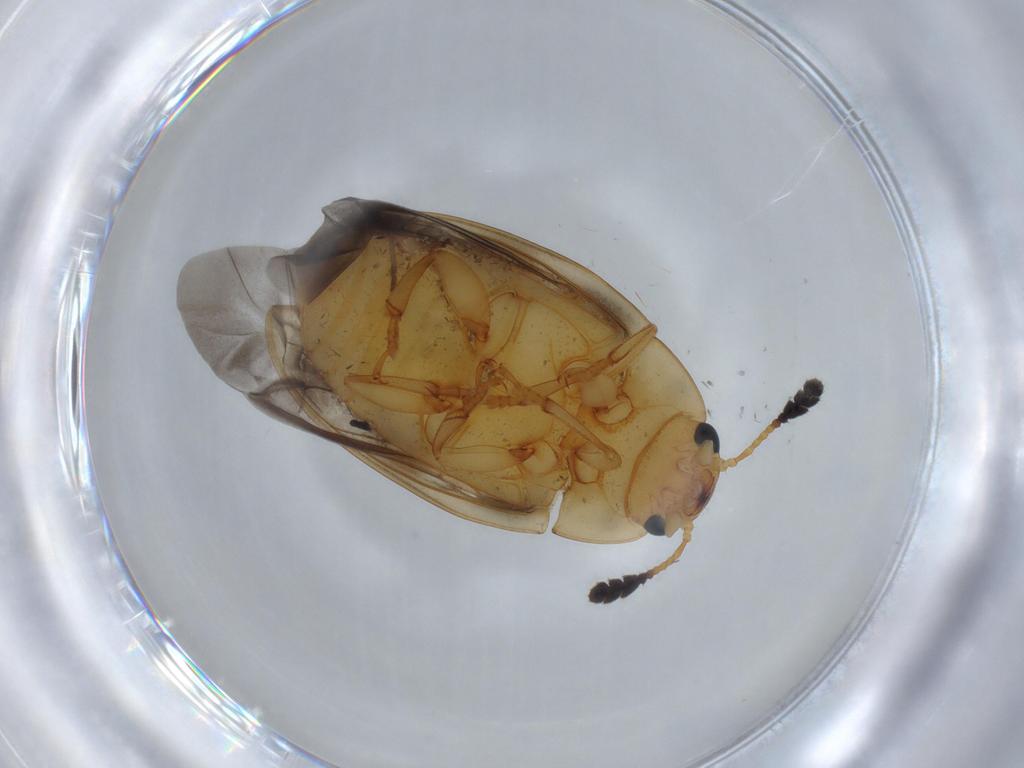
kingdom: Animalia
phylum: Arthropoda
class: Insecta
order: Coleoptera
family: Erotylidae
